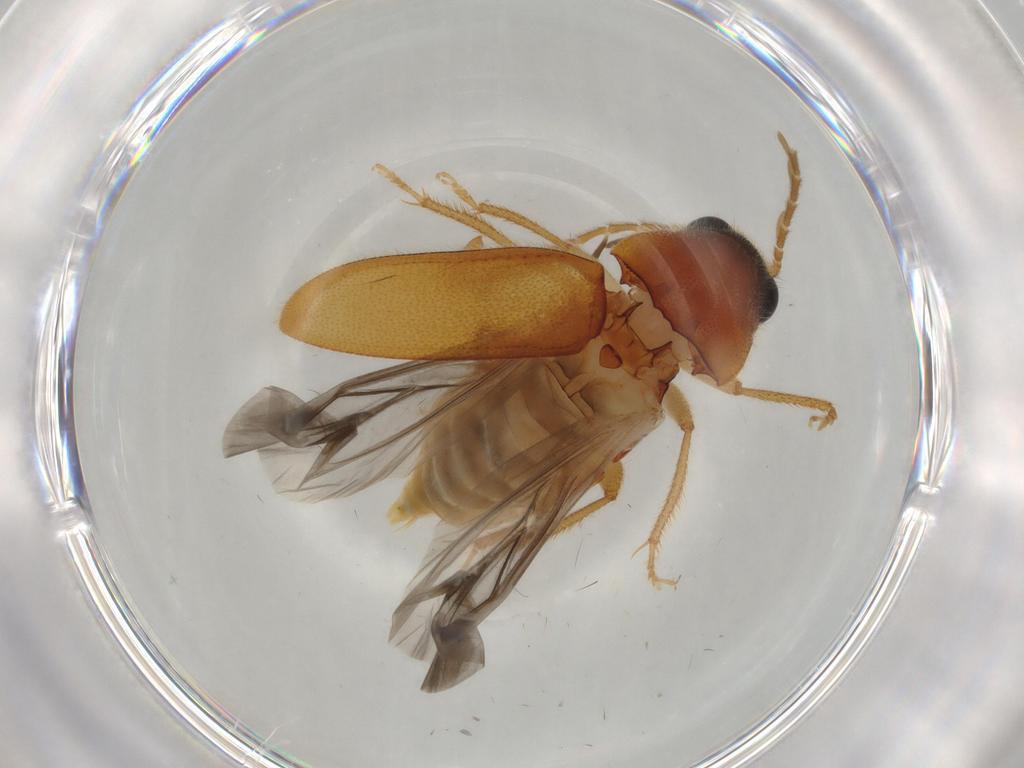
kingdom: Animalia
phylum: Arthropoda
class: Insecta
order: Coleoptera
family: Ptilodactylidae
